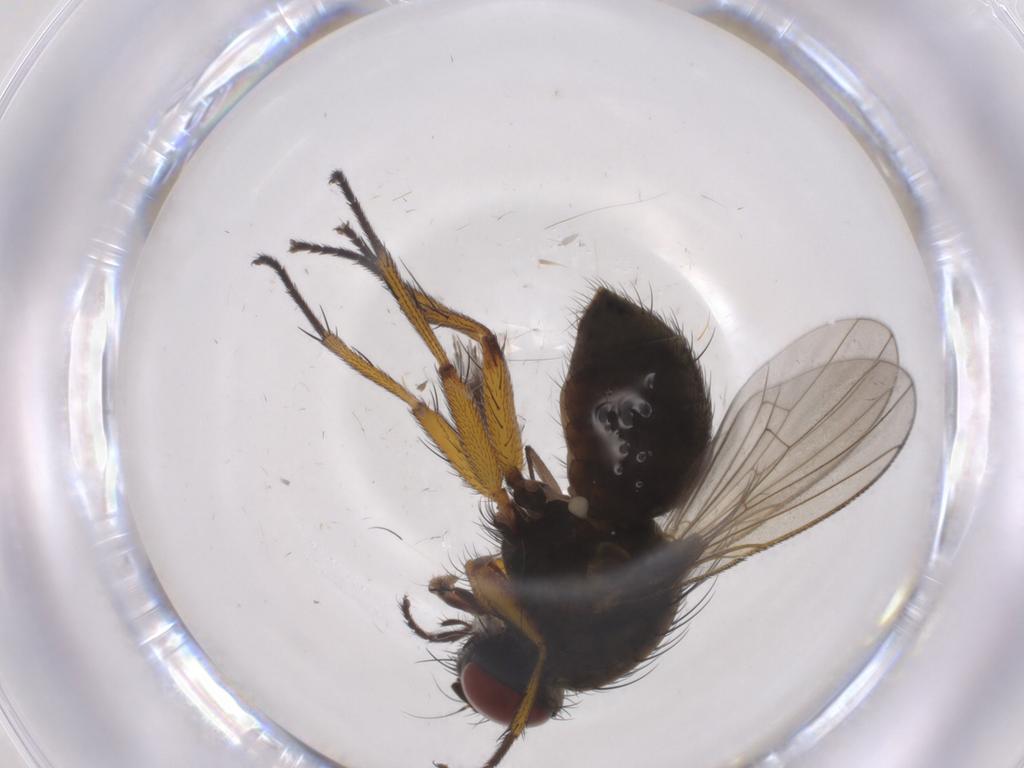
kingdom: Animalia
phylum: Arthropoda
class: Insecta
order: Diptera
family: Muscidae
